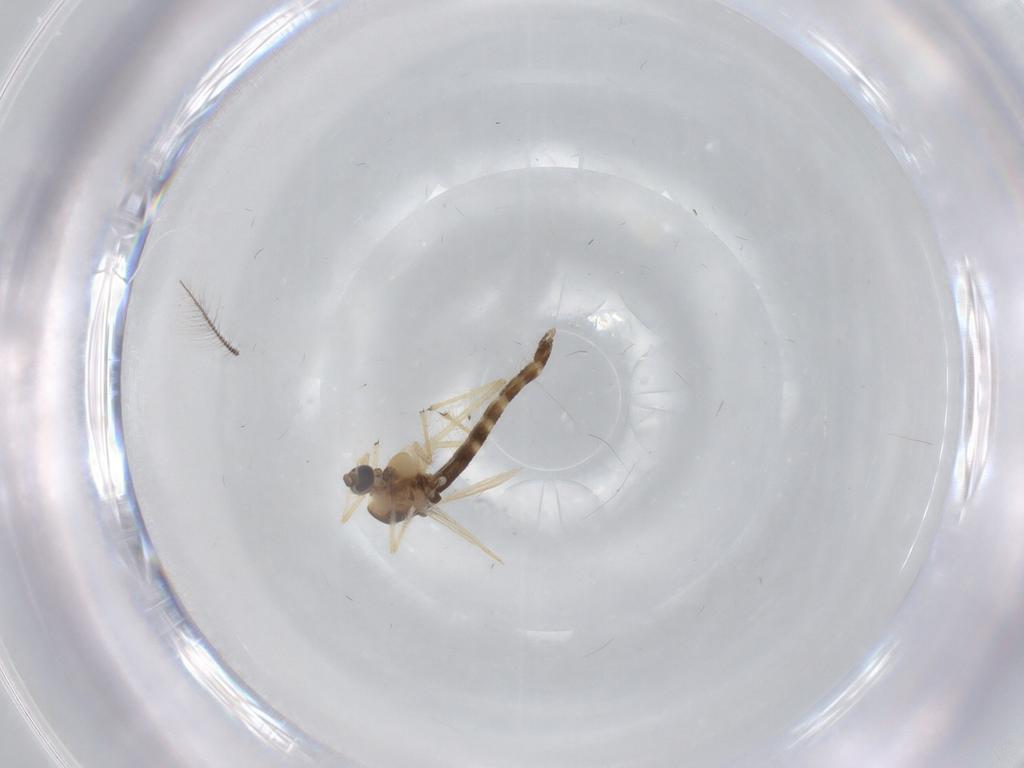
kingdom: Animalia
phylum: Arthropoda
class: Insecta
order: Diptera
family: Chironomidae
